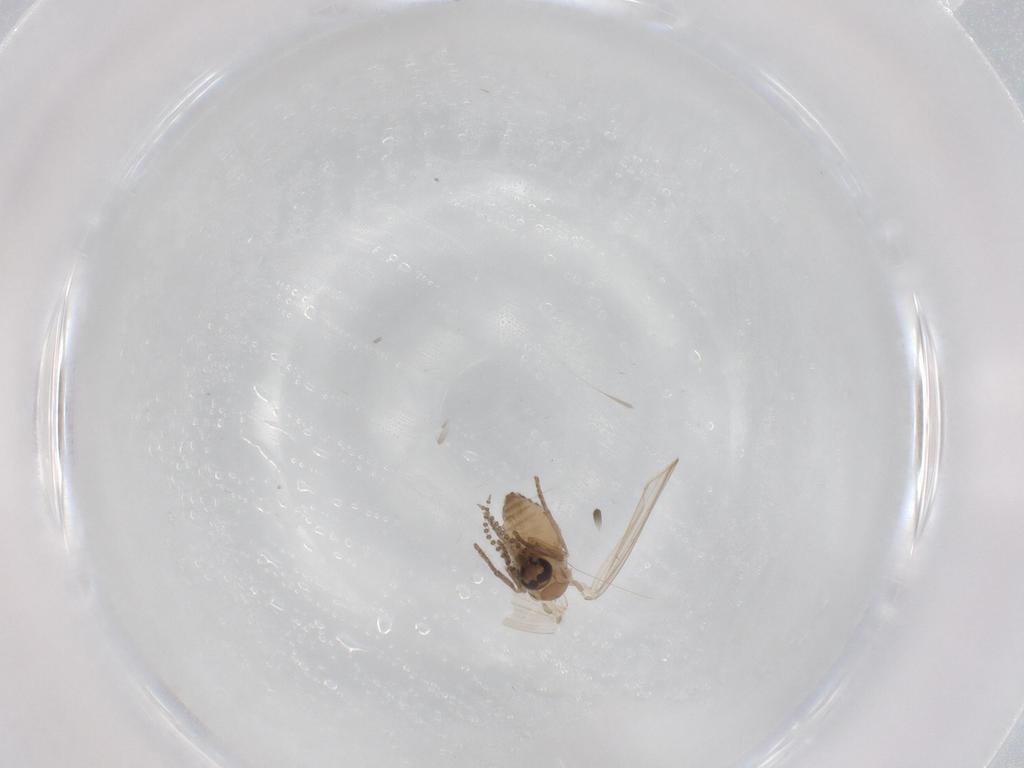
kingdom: Animalia
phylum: Arthropoda
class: Insecta
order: Diptera
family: Psychodidae
